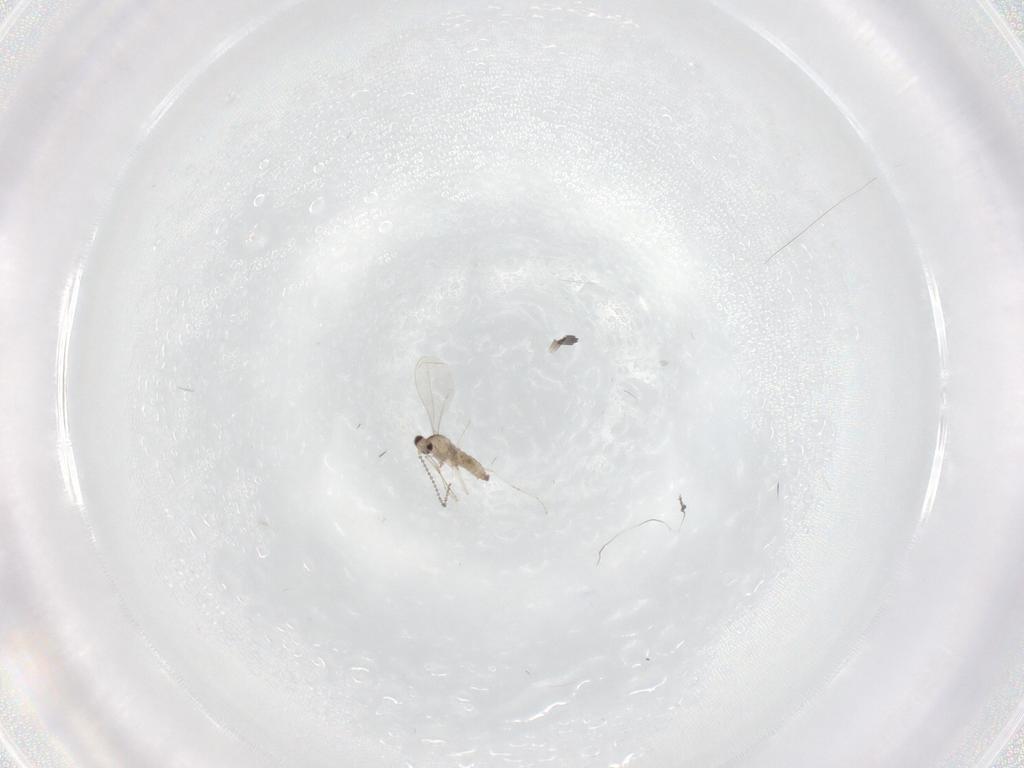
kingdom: Animalia
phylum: Arthropoda
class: Insecta
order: Diptera
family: Cecidomyiidae
